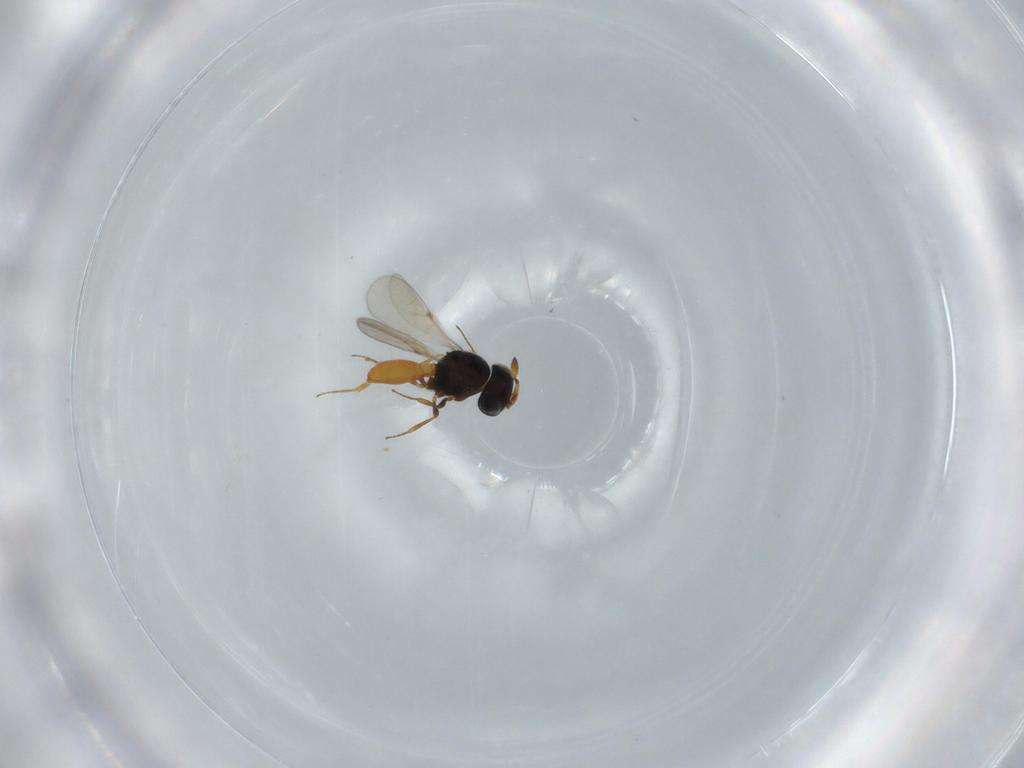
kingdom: Animalia
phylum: Arthropoda
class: Insecta
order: Hymenoptera
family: Scelionidae
